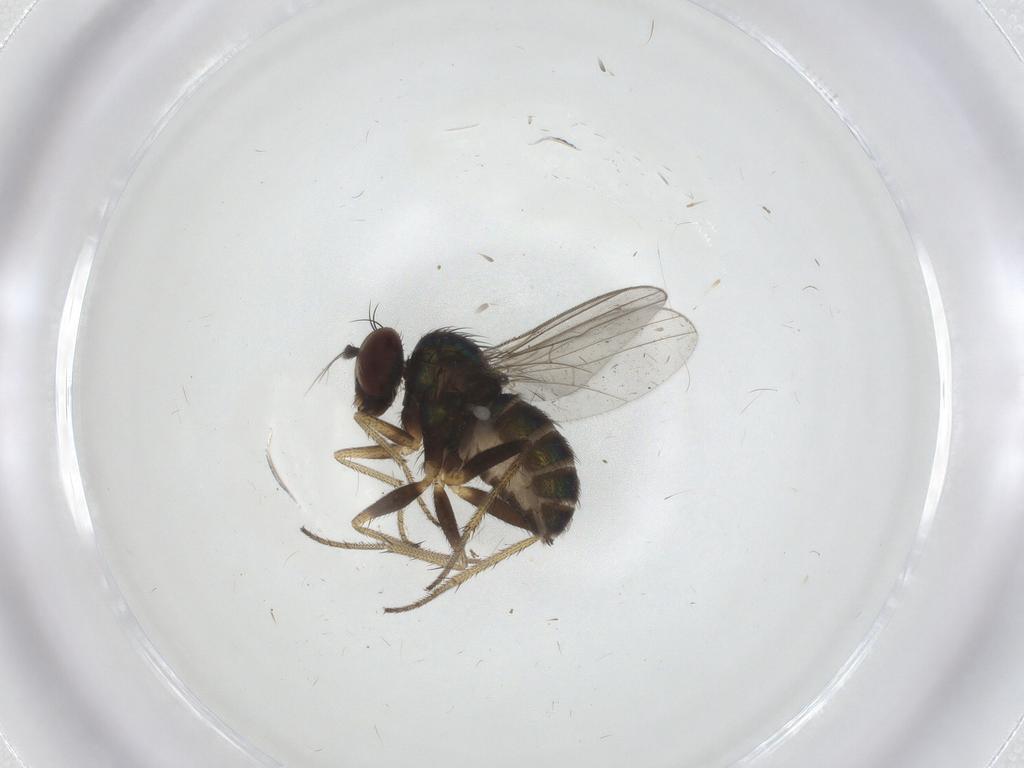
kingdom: Animalia
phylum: Arthropoda
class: Insecta
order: Diptera
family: Dolichopodidae
